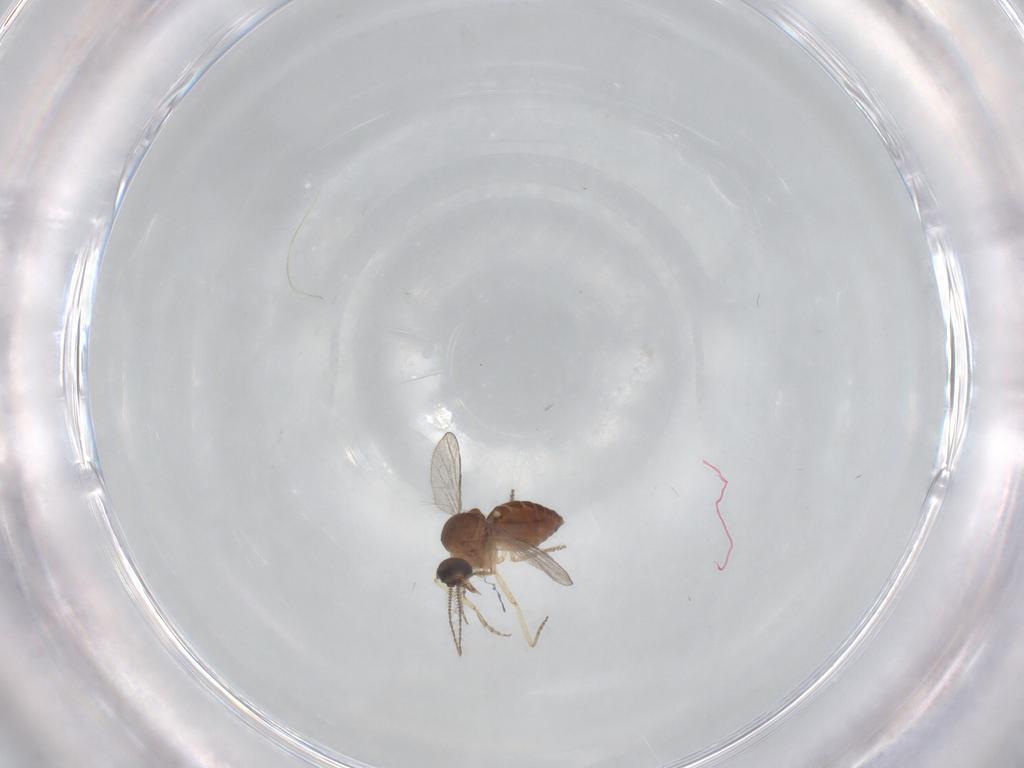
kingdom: Animalia
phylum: Arthropoda
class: Insecta
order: Diptera
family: Ceratopogonidae
